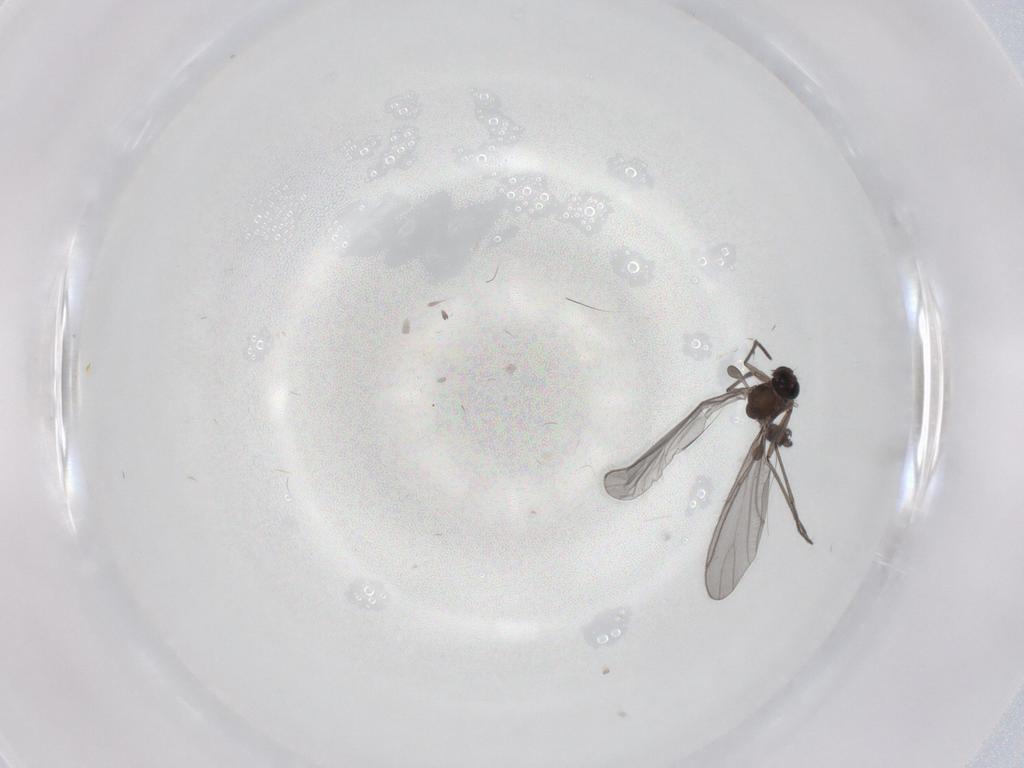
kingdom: Animalia
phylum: Arthropoda
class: Insecta
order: Diptera
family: Cecidomyiidae
